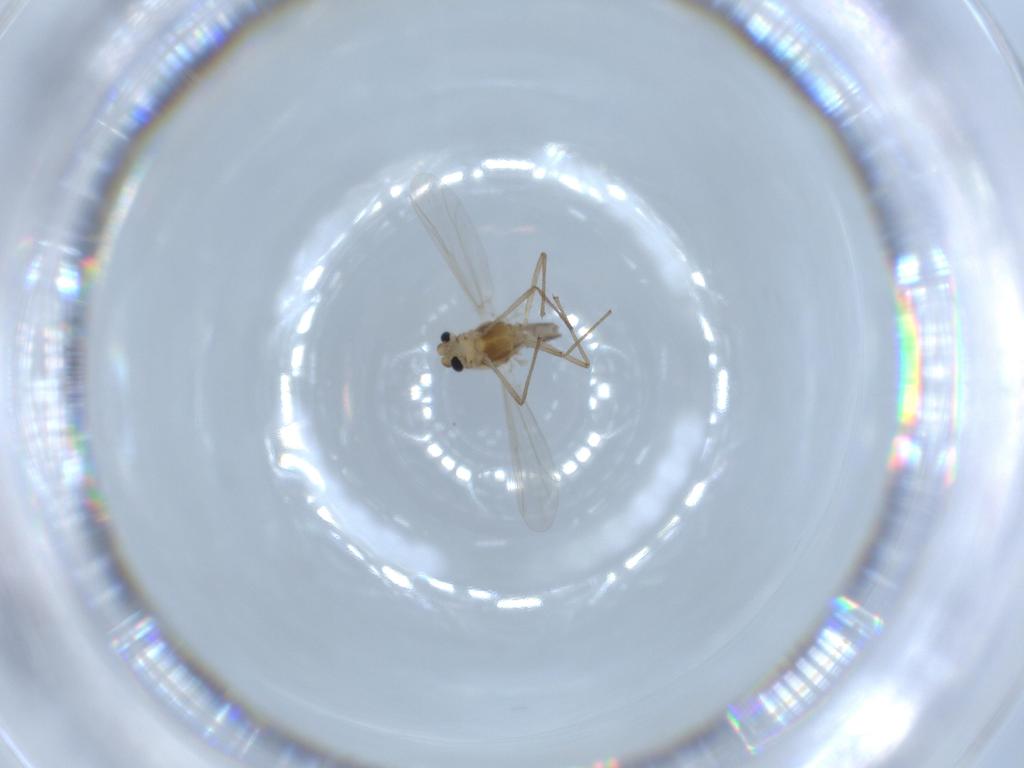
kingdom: Animalia
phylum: Arthropoda
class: Insecta
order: Diptera
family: Chironomidae
